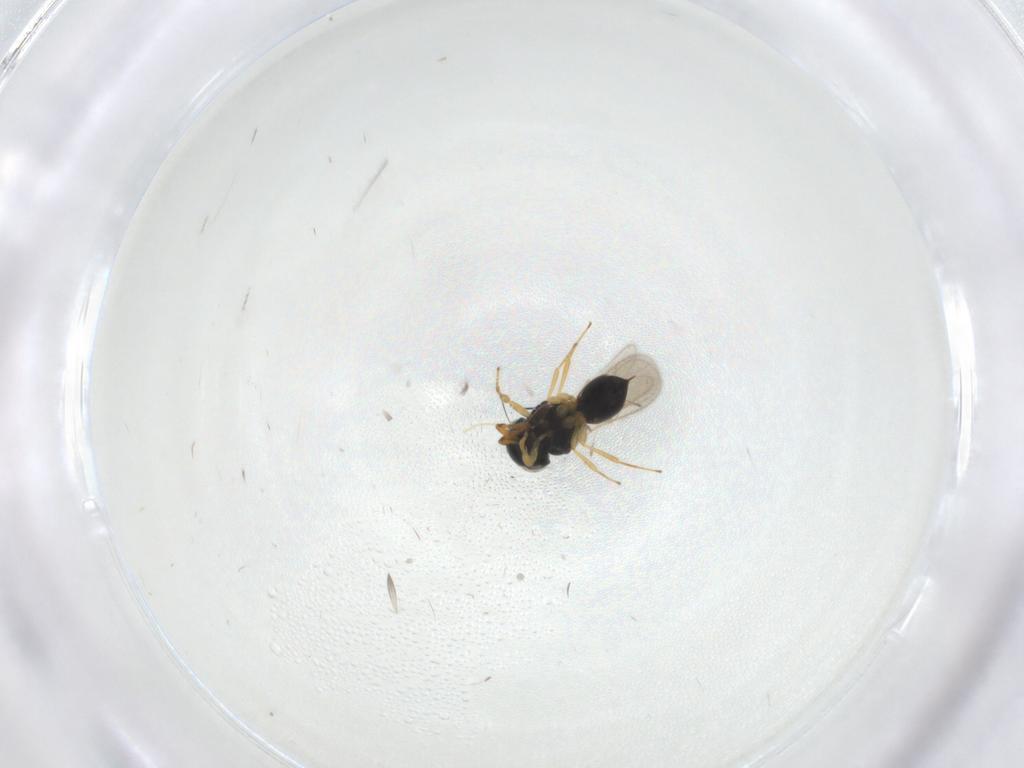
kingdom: Animalia
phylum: Arthropoda
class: Insecta
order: Hymenoptera
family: Scelionidae
